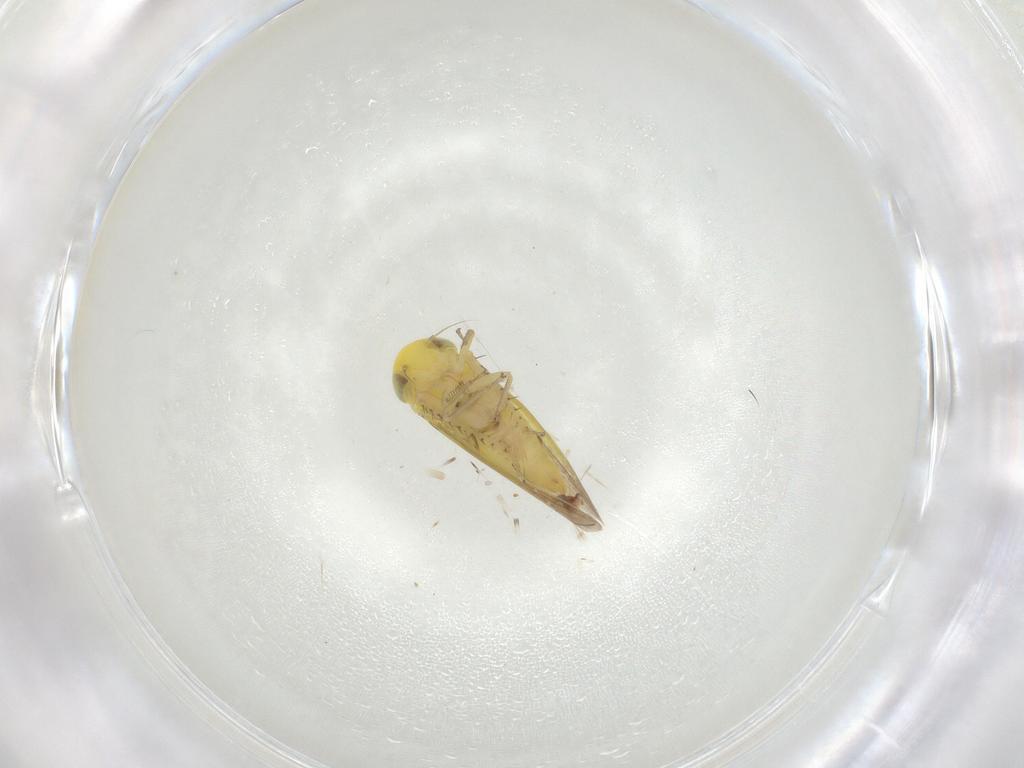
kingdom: Animalia
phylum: Arthropoda
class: Insecta
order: Hemiptera
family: Cicadellidae
